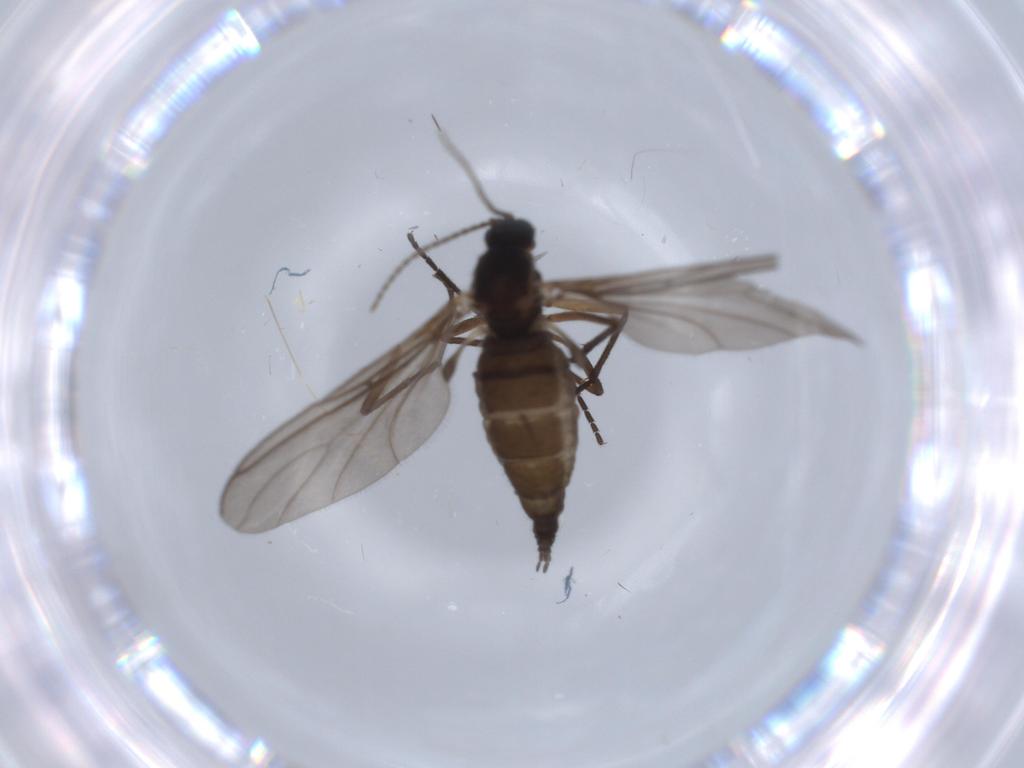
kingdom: Animalia
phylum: Arthropoda
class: Insecta
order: Diptera
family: Sciaridae
